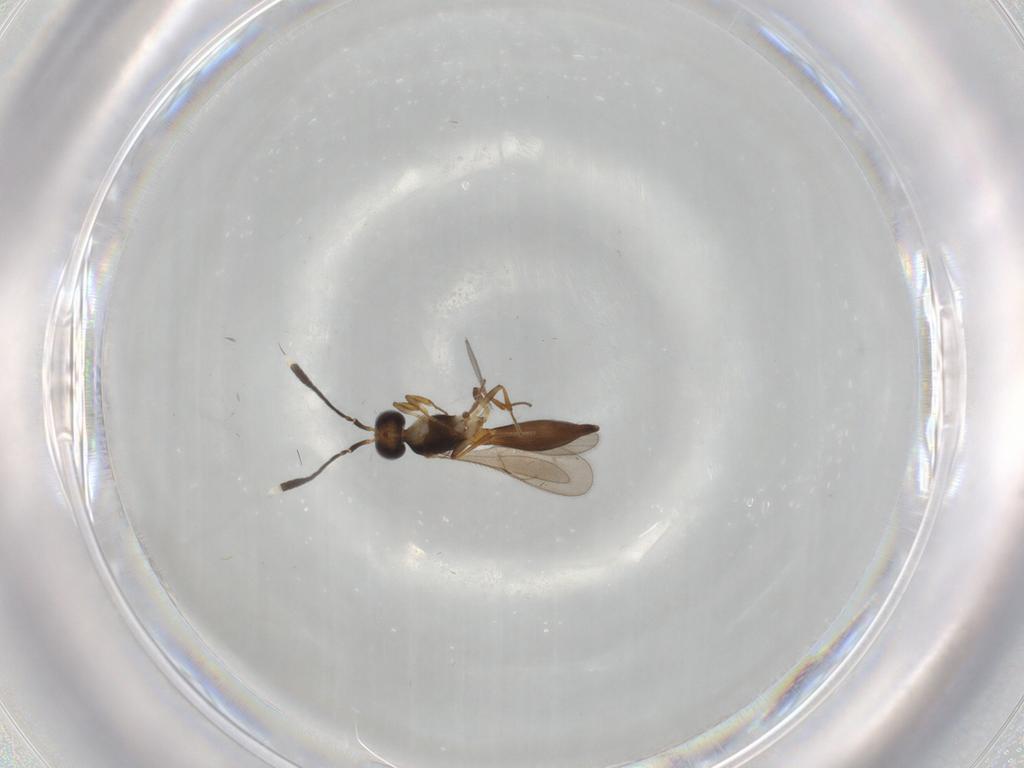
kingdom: Animalia
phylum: Arthropoda
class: Insecta
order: Hymenoptera
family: Scelionidae
